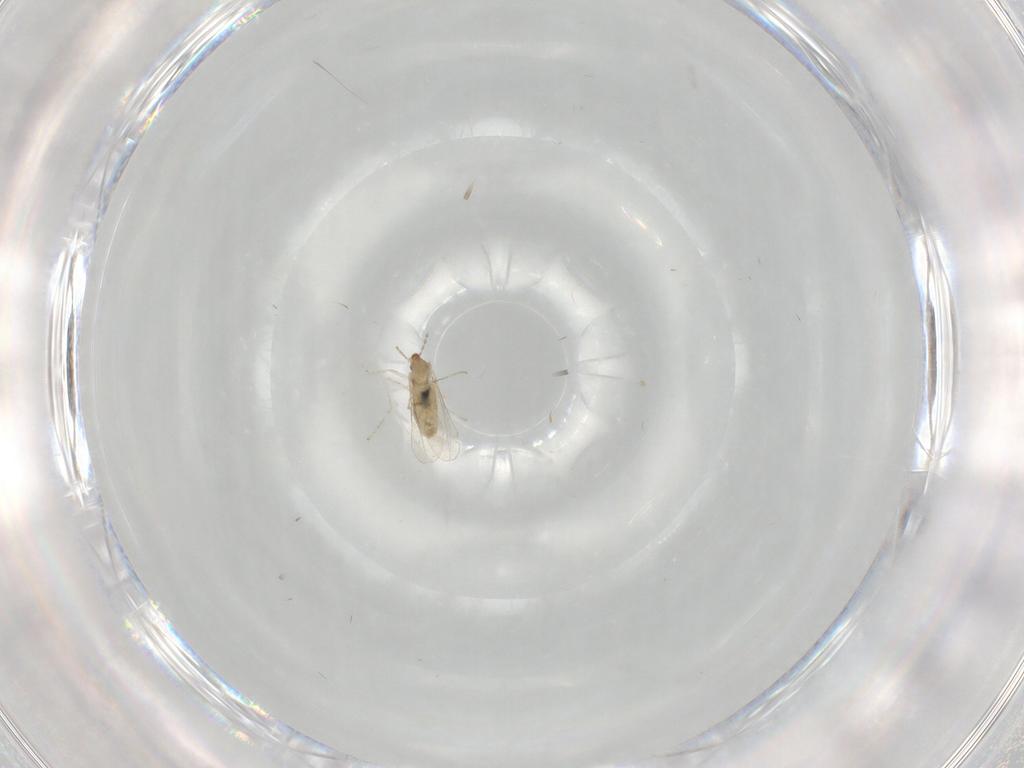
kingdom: Animalia
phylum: Arthropoda
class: Insecta
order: Diptera
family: Cecidomyiidae
